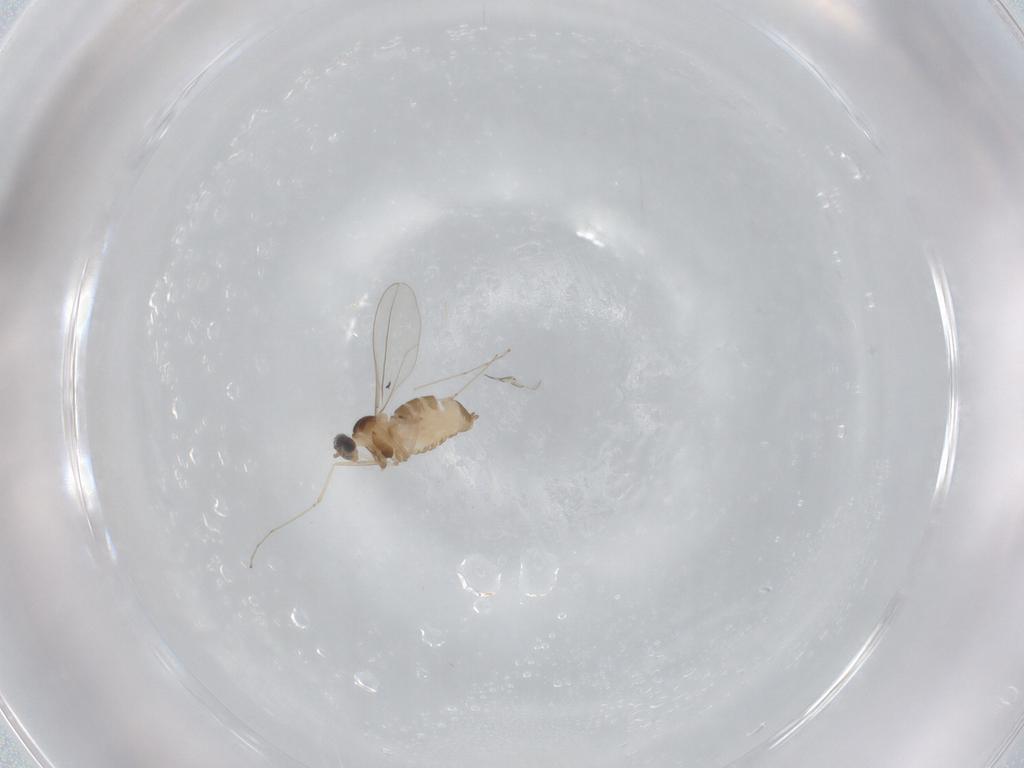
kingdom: Animalia
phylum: Arthropoda
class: Insecta
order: Diptera
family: Cecidomyiidae
